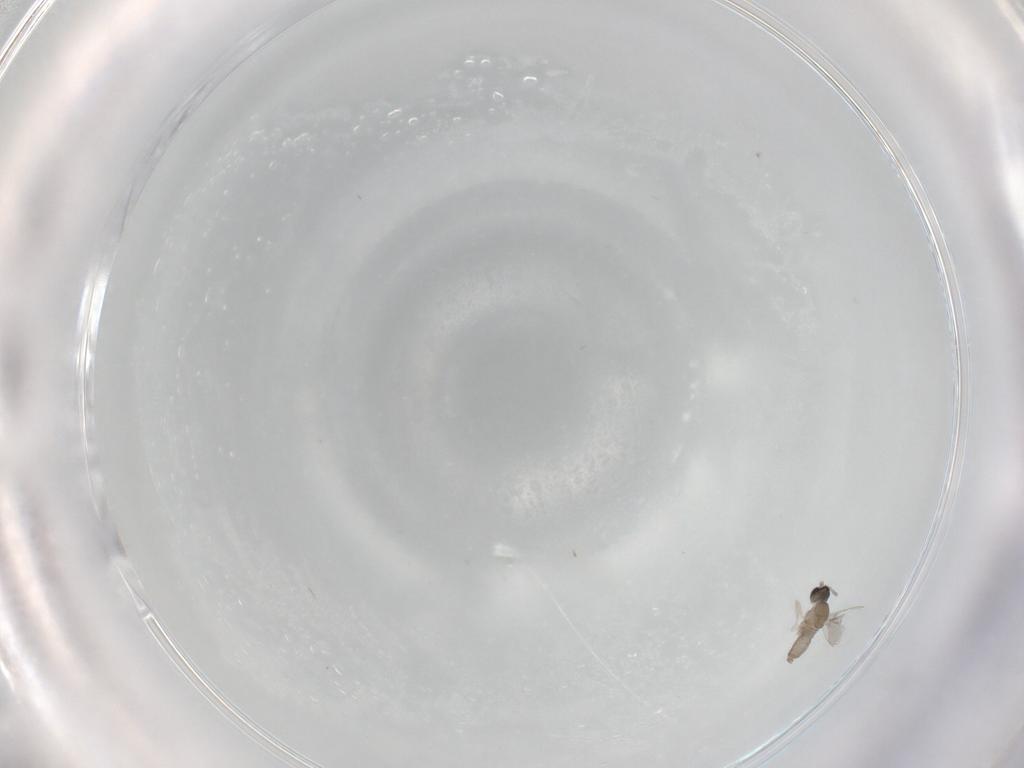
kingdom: Animalia
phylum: Arthropoda
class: Insecta
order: Diptera
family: Cecidomyiidae
